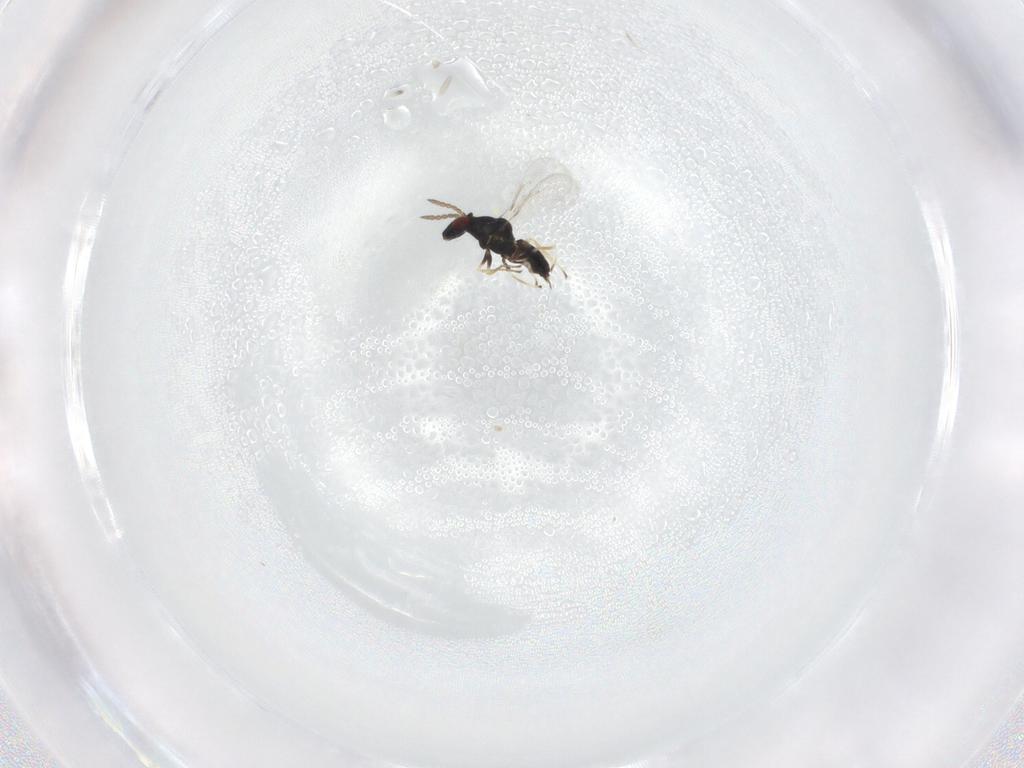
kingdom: Animalia
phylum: Arthropoda
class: Insecta
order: Hymenoptera
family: Eulophidae
